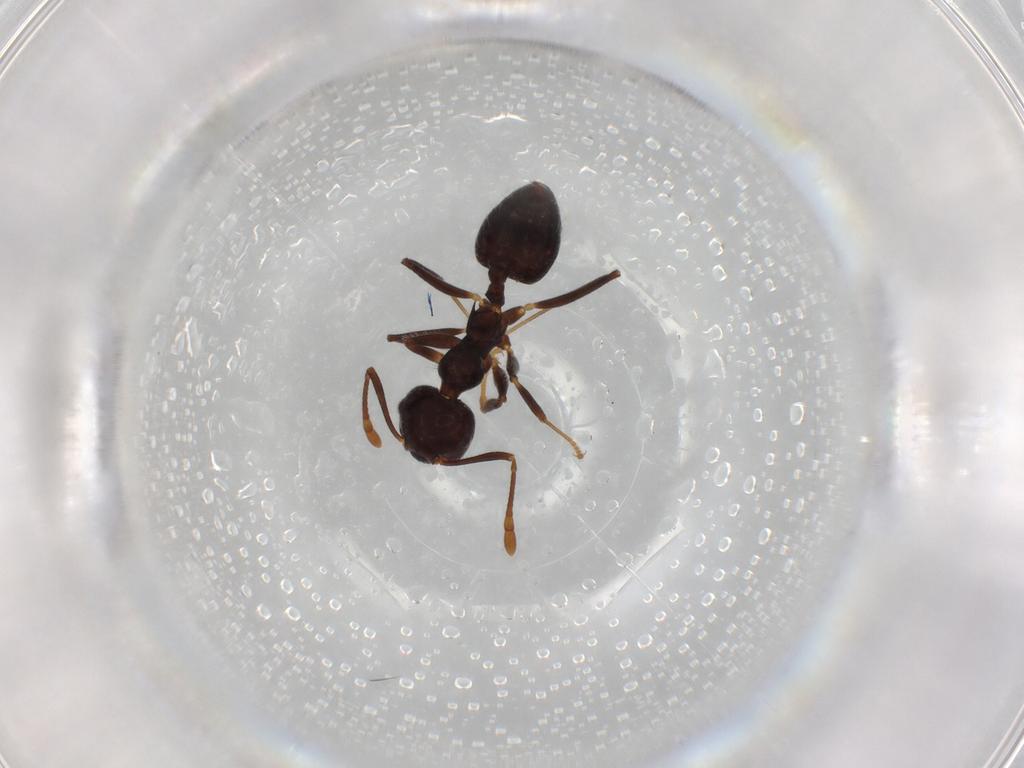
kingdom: Animalia
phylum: Arthropoda
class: Insecta
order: Hymenoptera
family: Formicidae
